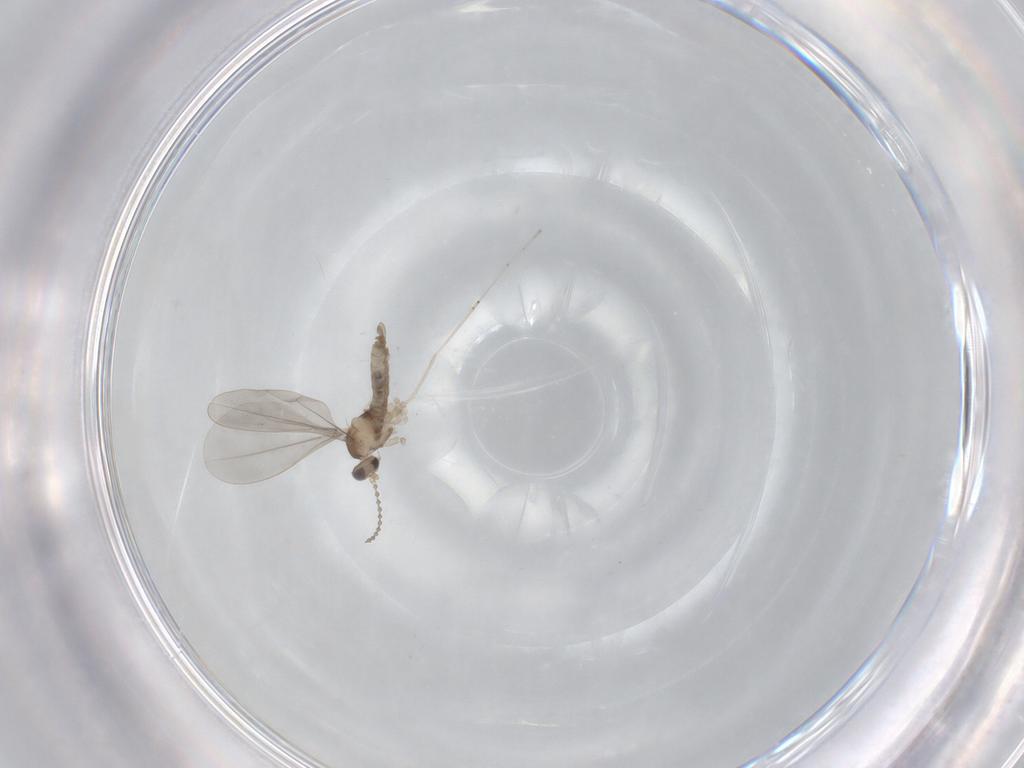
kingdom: Animalia
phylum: Arthropoda
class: Insecta
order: Diptera
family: Cecidomyiidae
